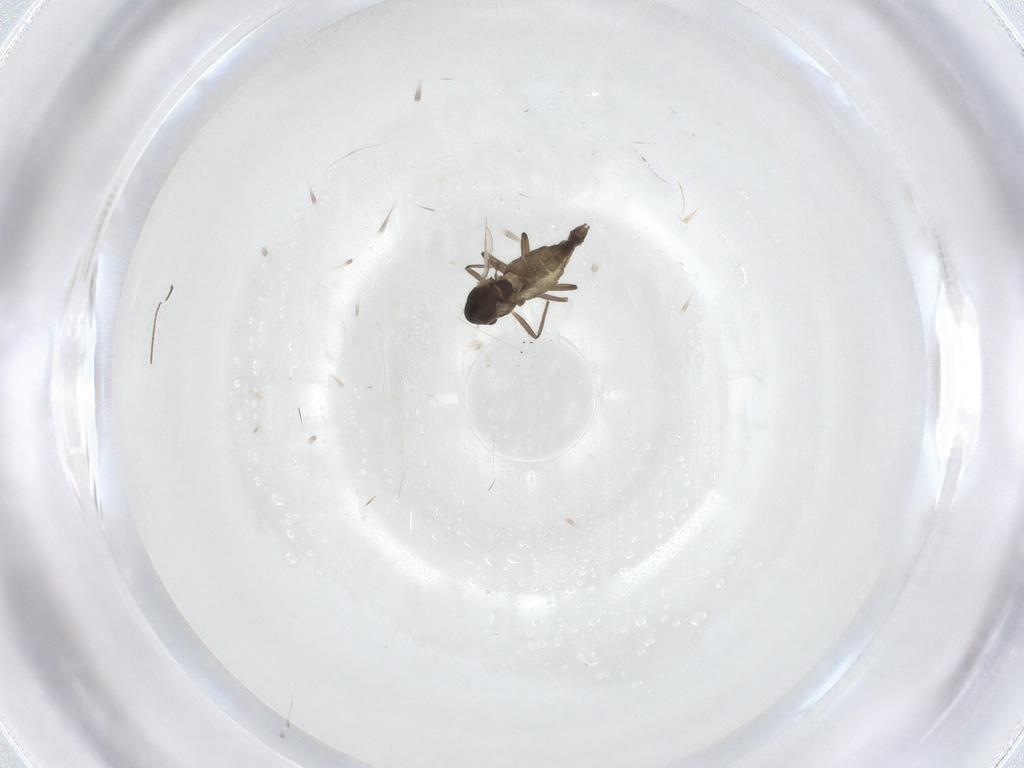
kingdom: Animalia
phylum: Arthropoda
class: Insecta
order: Diptera
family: Chironomidae
